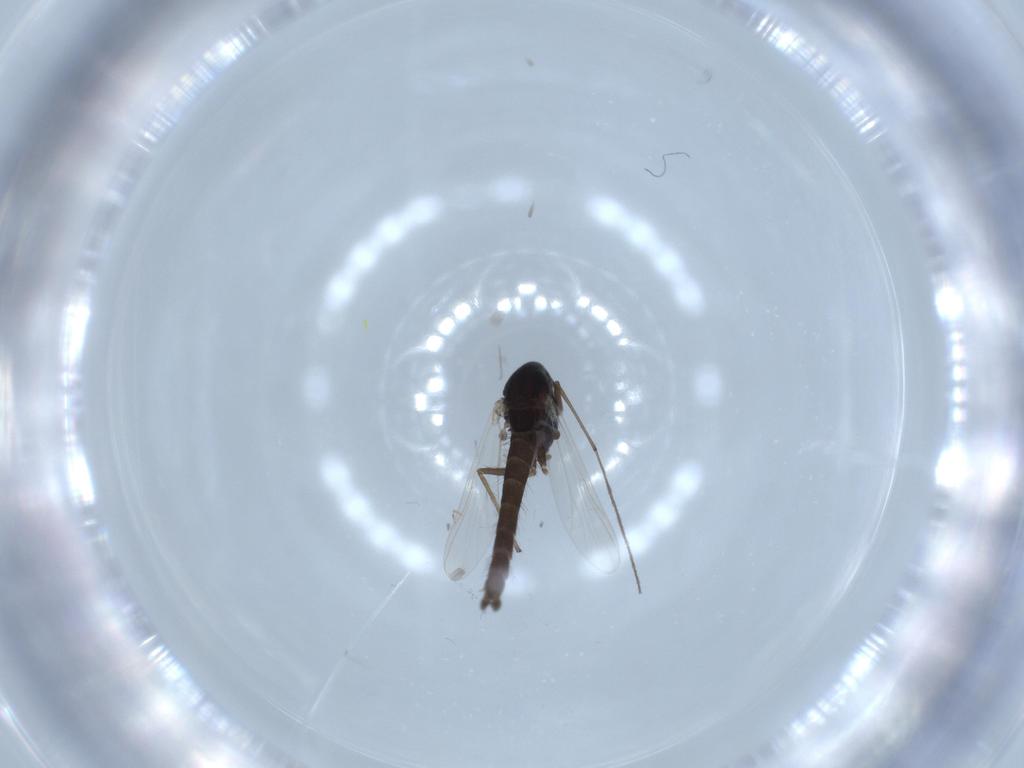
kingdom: Animalia
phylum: Arthropoda
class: Insecta
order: Diptera
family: Chironomidae
